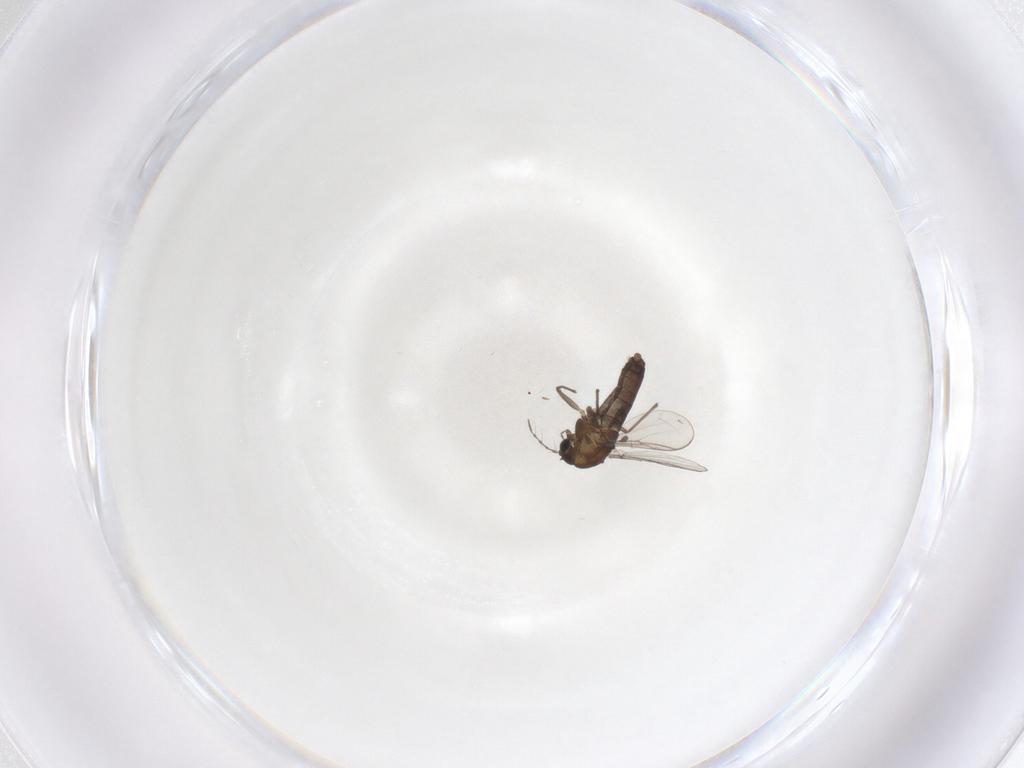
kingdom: Animalia
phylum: Arthropoda
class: Insecta
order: Diptera
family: Chironomidae
